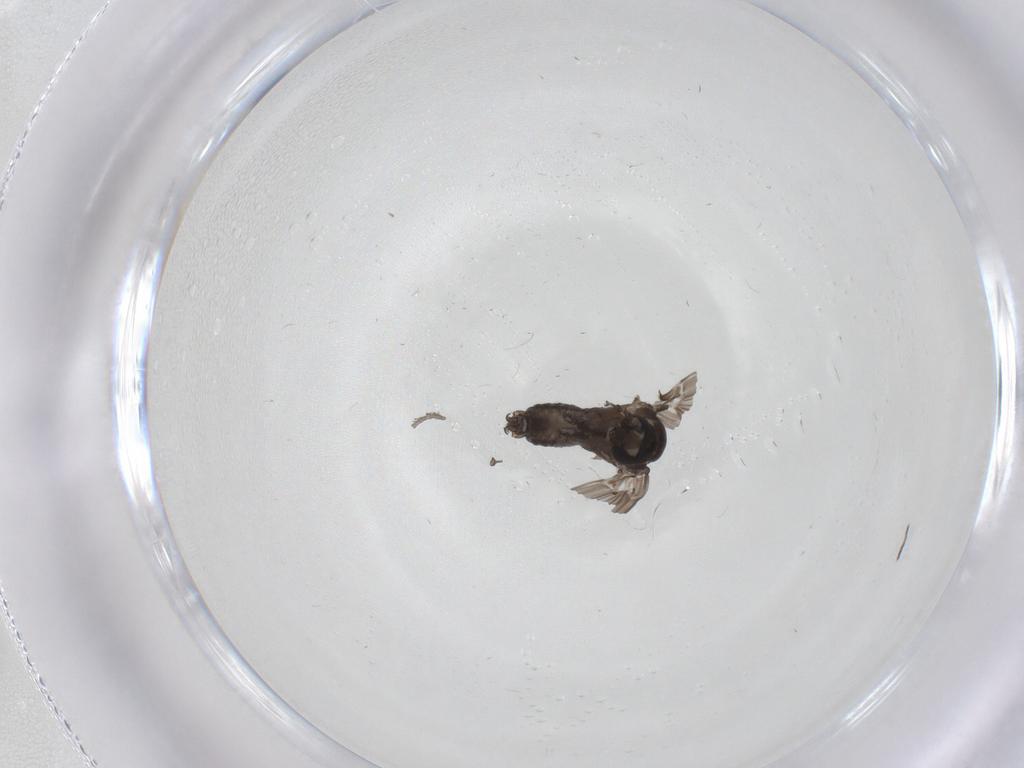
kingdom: Animalia
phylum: Arthropoda
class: Insecta
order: Diptera
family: Psychodidae
